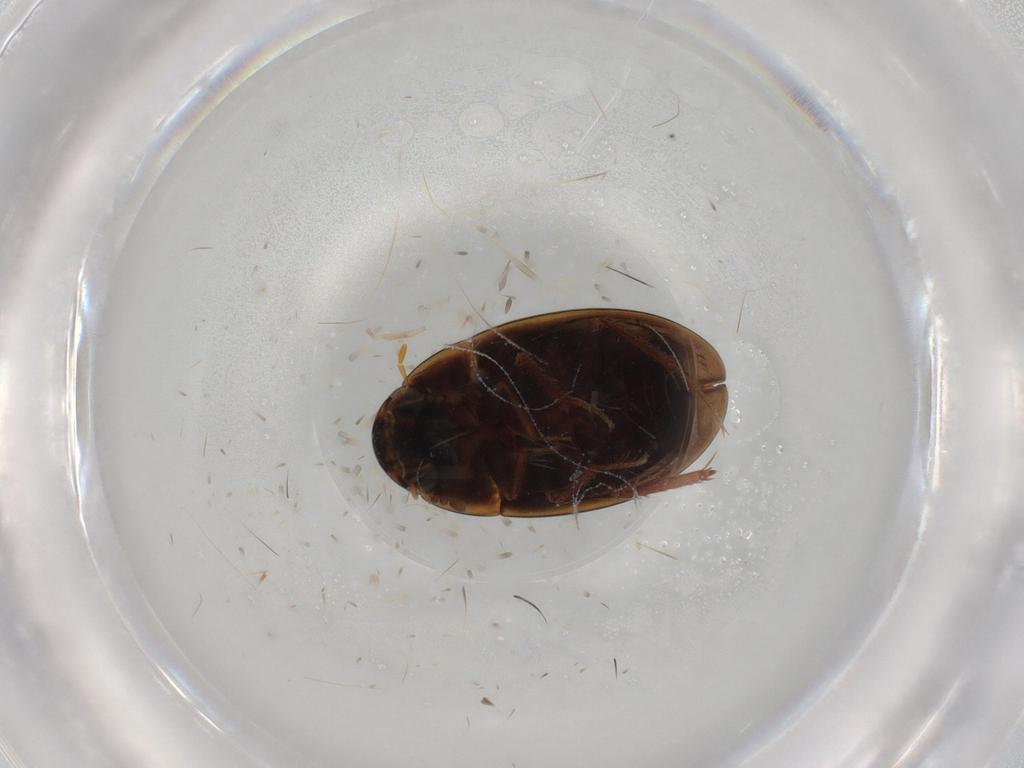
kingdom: Animalia
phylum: Arthropoda
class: Insecta
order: Coleoptera
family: Hydrophilidae
